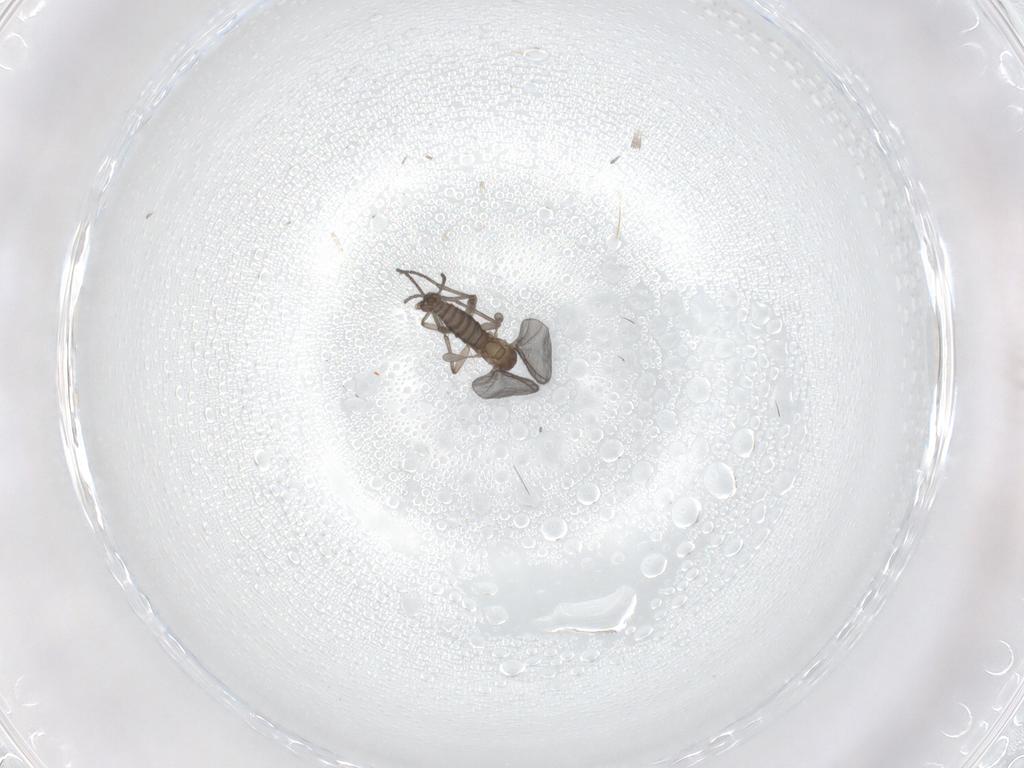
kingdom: Animalia
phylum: Arthropoda
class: Insecta
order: Diptera
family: Sciaridae
